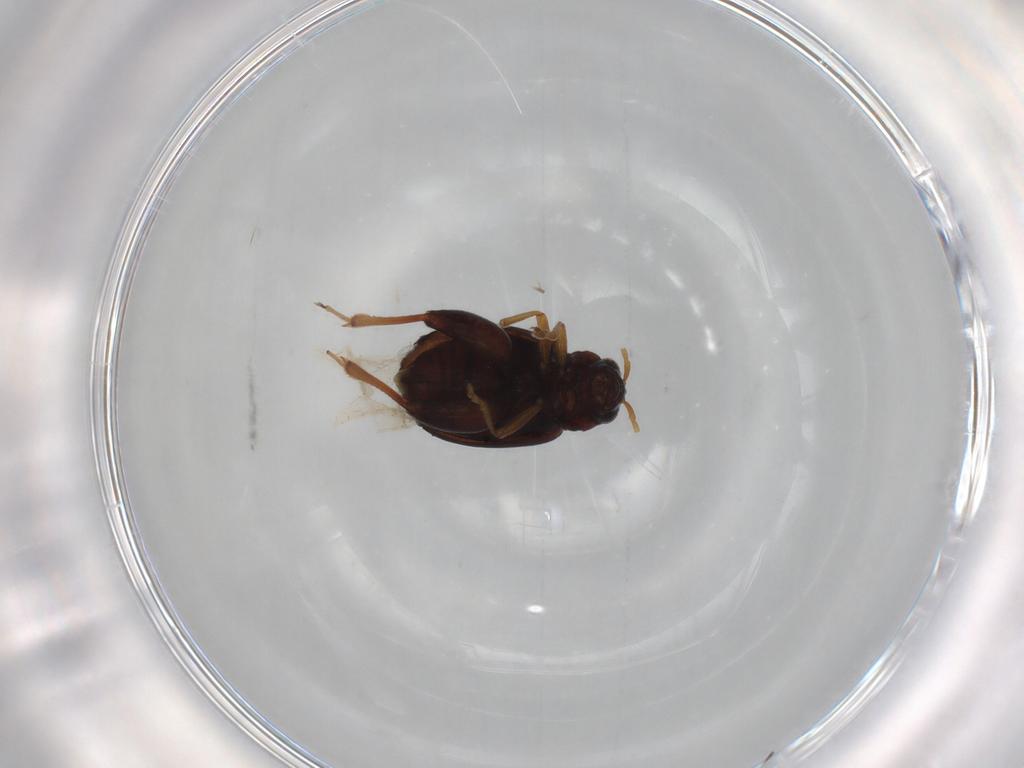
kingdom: Animalia
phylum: Arthropoda
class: Insecta
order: Coleoptera
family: Chrysomelidae
